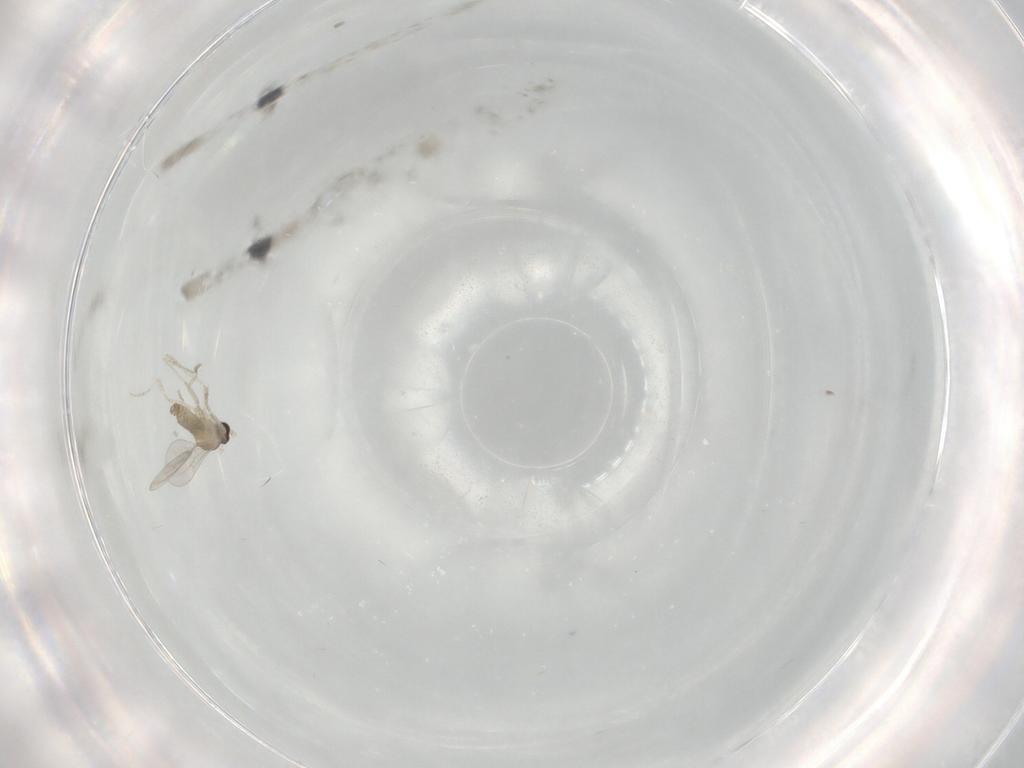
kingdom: Animalia
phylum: Arthropoda
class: Insecta
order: Diptera
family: Cecidomyiidae
